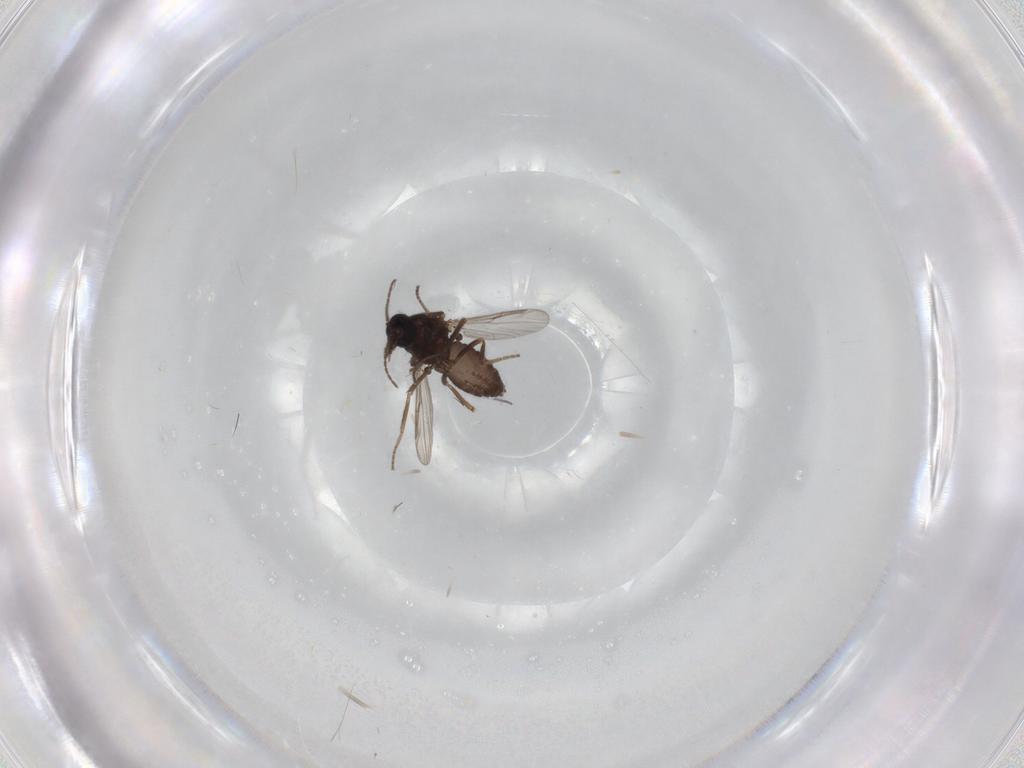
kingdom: Animalia
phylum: Arthropoda
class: Insecta
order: Diptera
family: Ceratopogonidae
